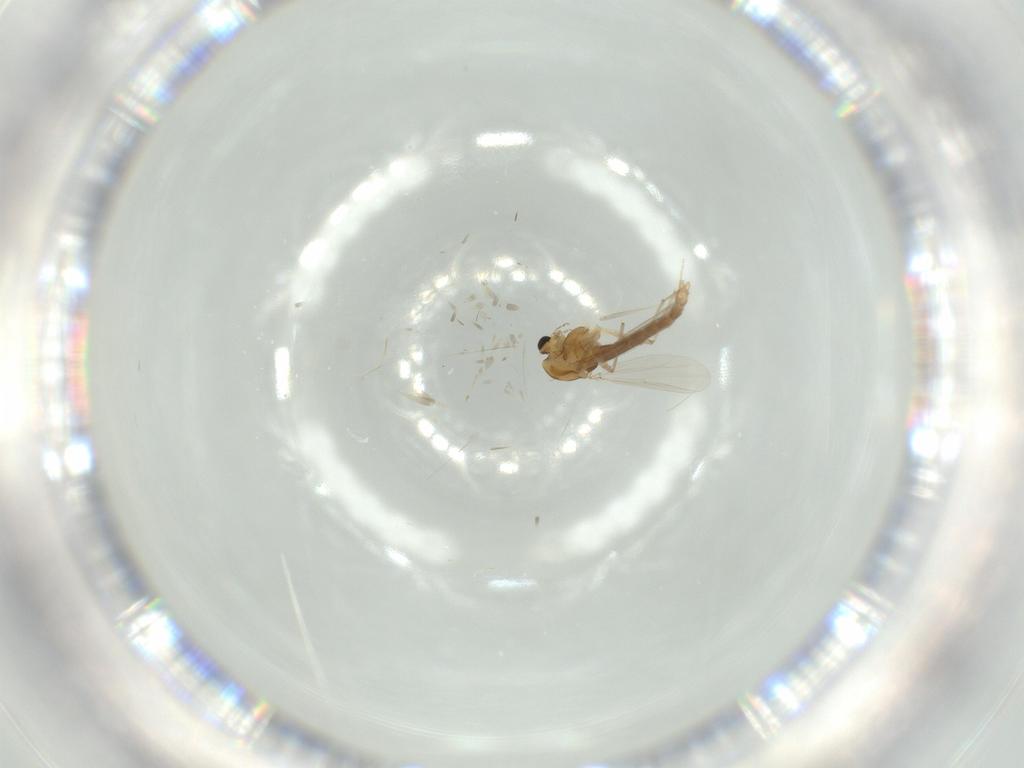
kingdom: Animalia
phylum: Arthropoda
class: Insecta
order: Diptera
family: Chironomidae
